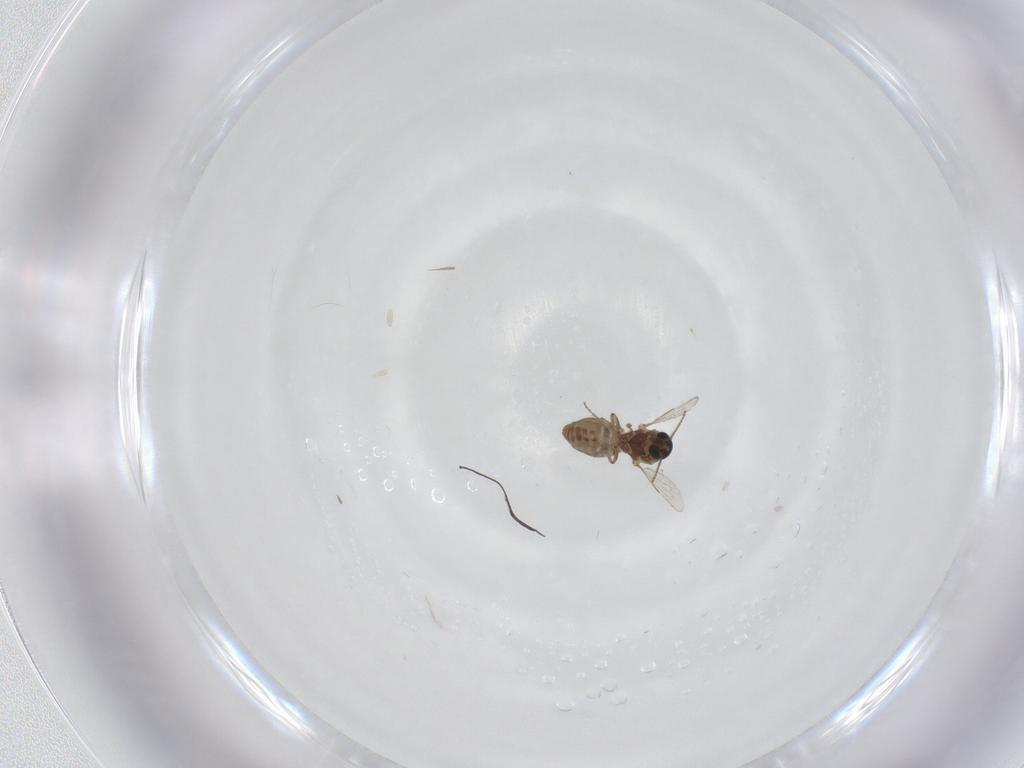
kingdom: Animalia
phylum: Arthropoda
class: Insecta
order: Diptera
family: Ceratopogonidae
